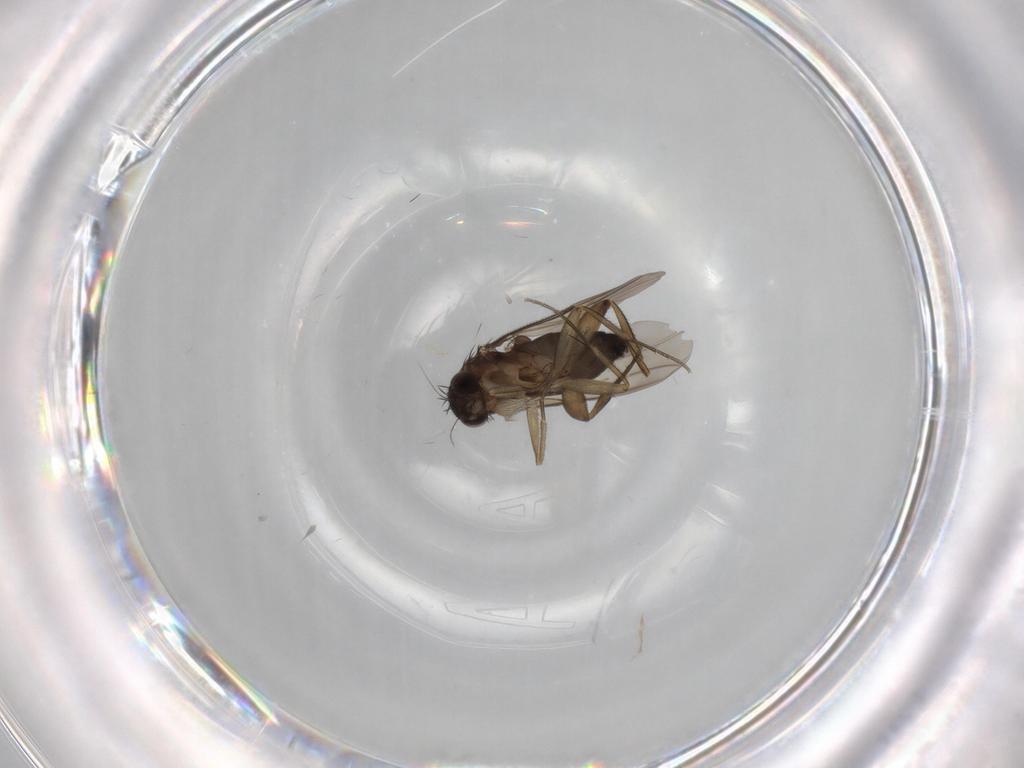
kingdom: Animalia
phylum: Arthropoda
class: Insecta
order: Diptera
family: Phoridae
